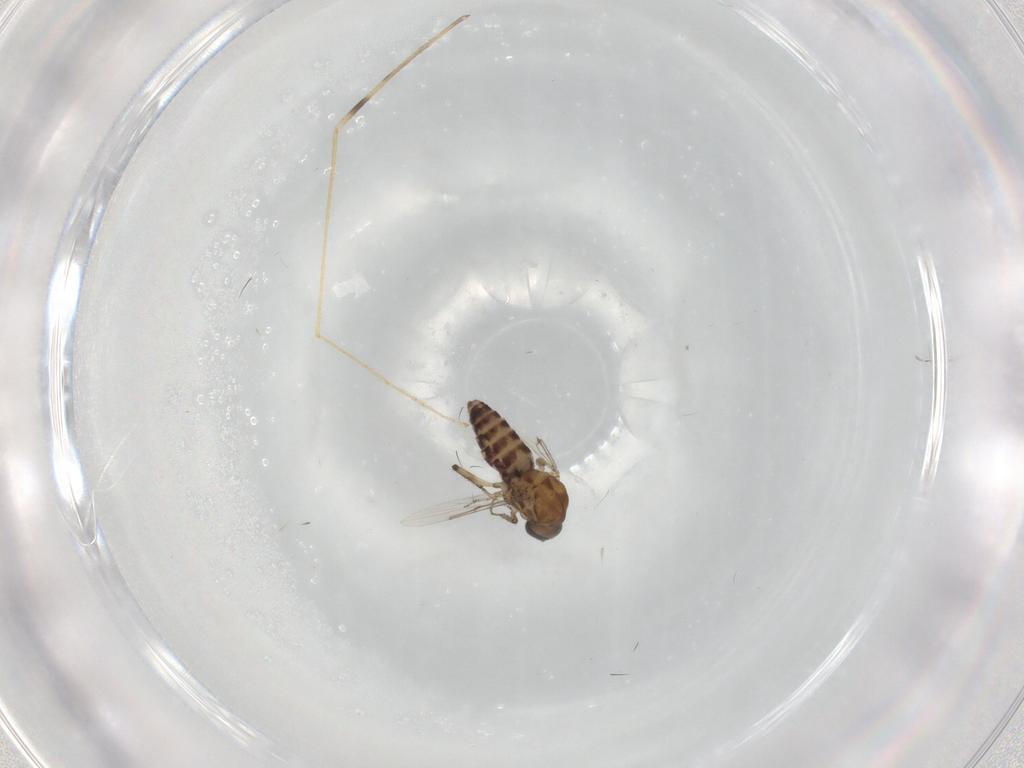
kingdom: Animalia
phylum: Arthropoda
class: Insecta
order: Diptera
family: Ceratopogonidae
